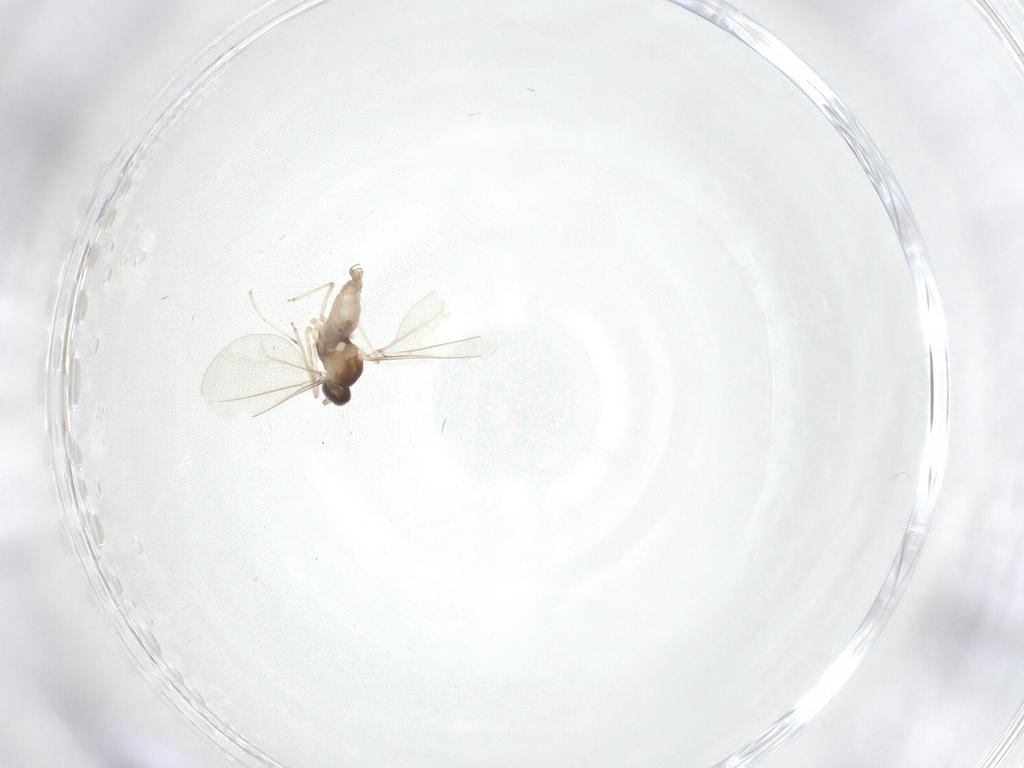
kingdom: Animalia
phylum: Arthropoda
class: Insecta
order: Diptera
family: Cecidomyiidae
